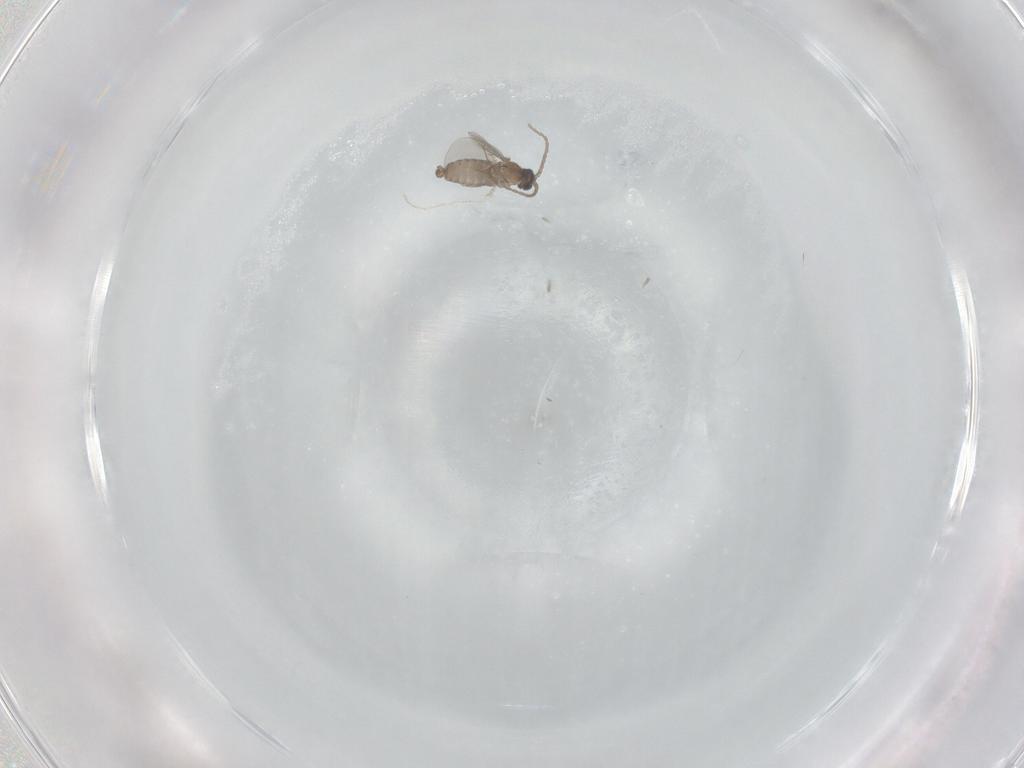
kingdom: Animalia
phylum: Arthropoda
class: Insecta
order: Diptera
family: Cecidomyiidae
